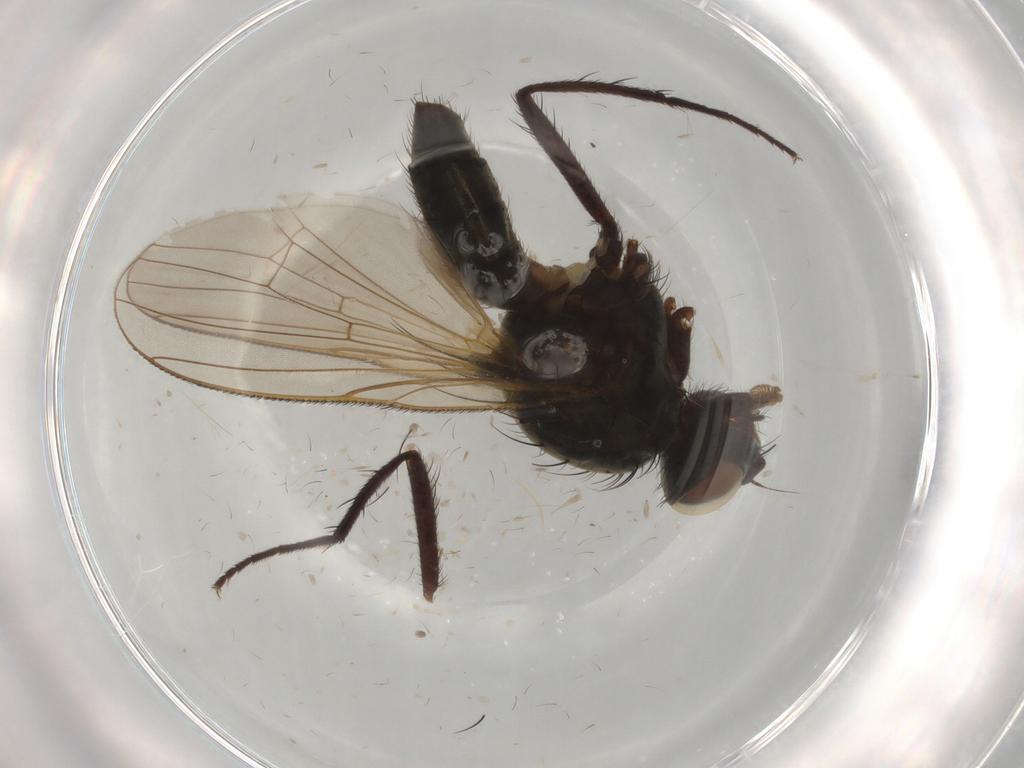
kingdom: Animalia
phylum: Arthropoda
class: Insecta
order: Diptera
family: Anthomyiidae
